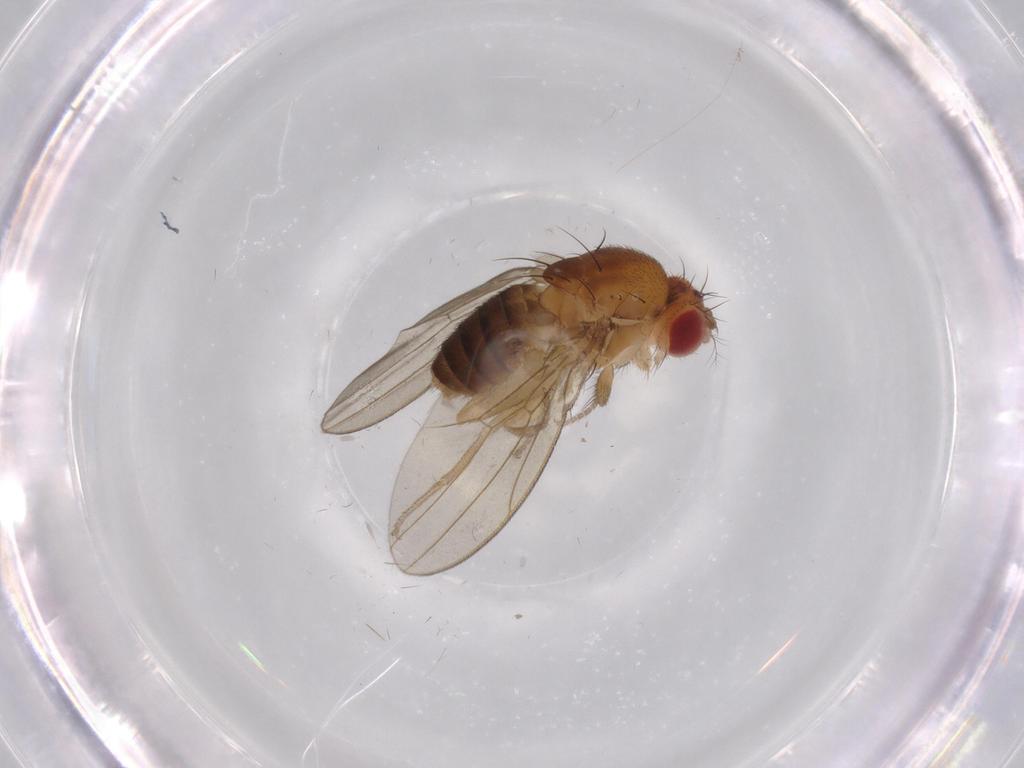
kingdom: Animalia
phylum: Arthropoda
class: Insecta
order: Diptera
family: Drosophilidae
